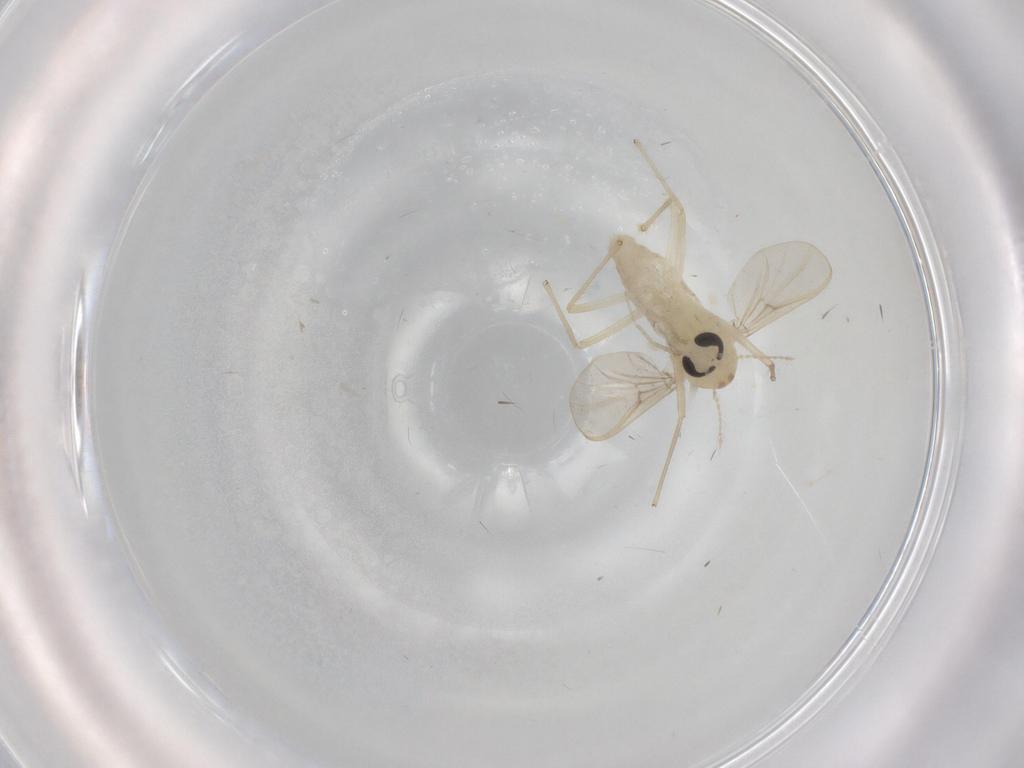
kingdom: Animalia
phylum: Arthropoda
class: Insecta
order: Diptera
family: Chironomidae
